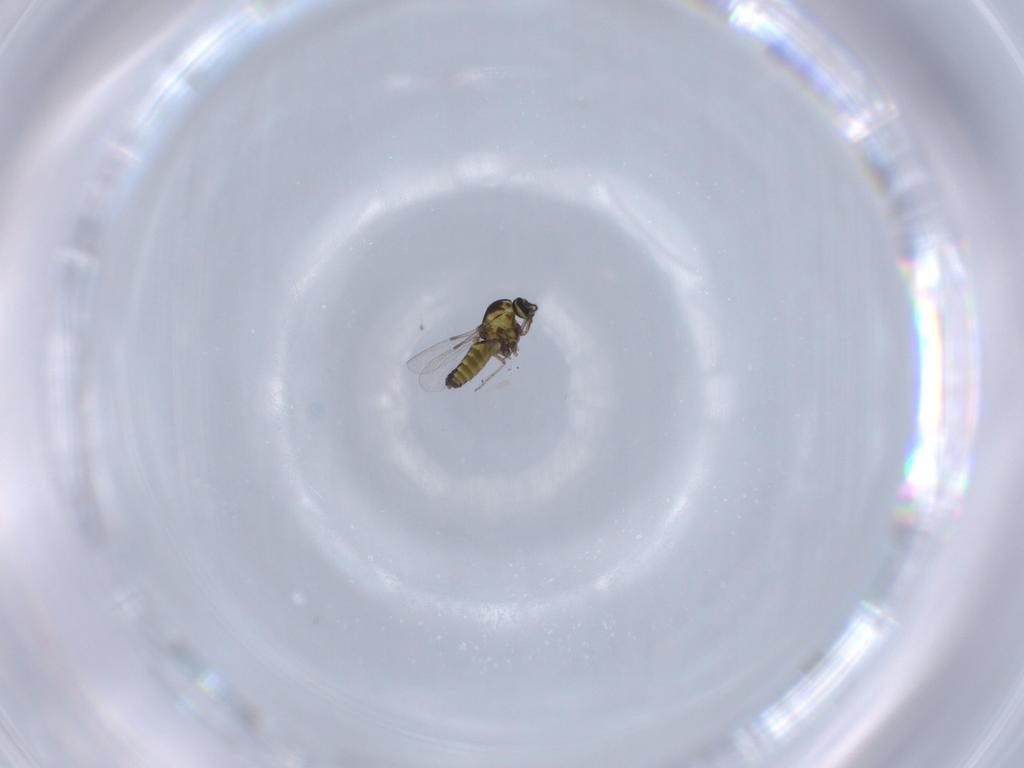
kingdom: Animalia
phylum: Arthropoda
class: Insecta
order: Diptera
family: Ceratopogonidae
